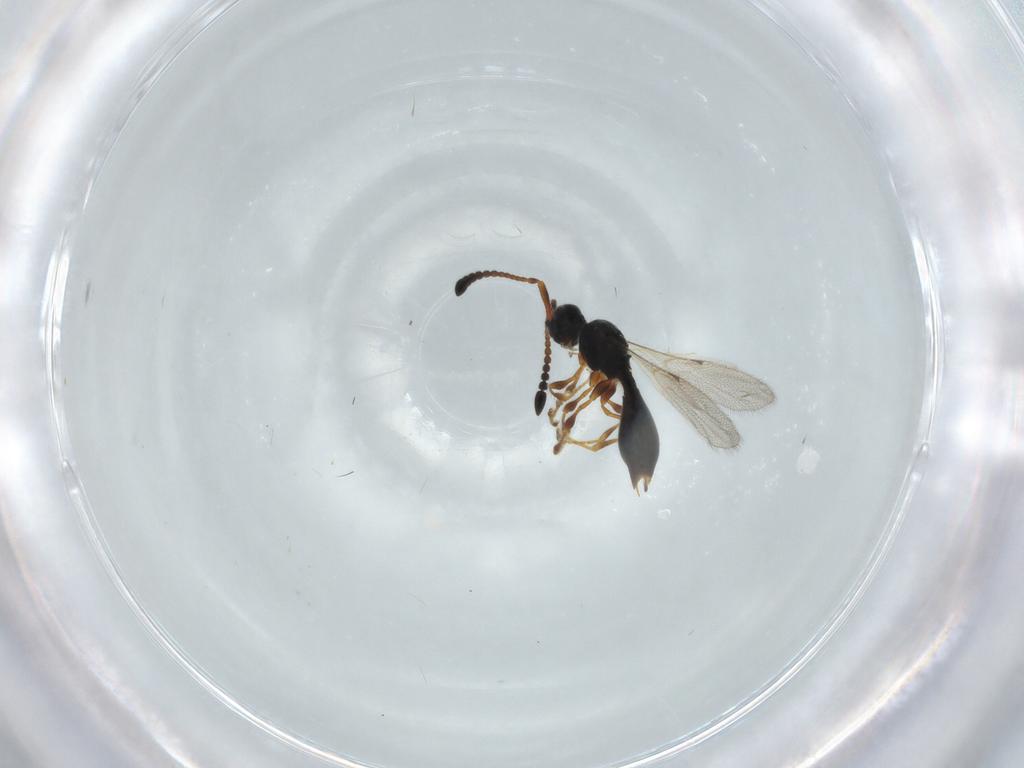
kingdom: Animalia
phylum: Arthropoda
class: Insecta
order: Hymenoptera
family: Diapriidae
